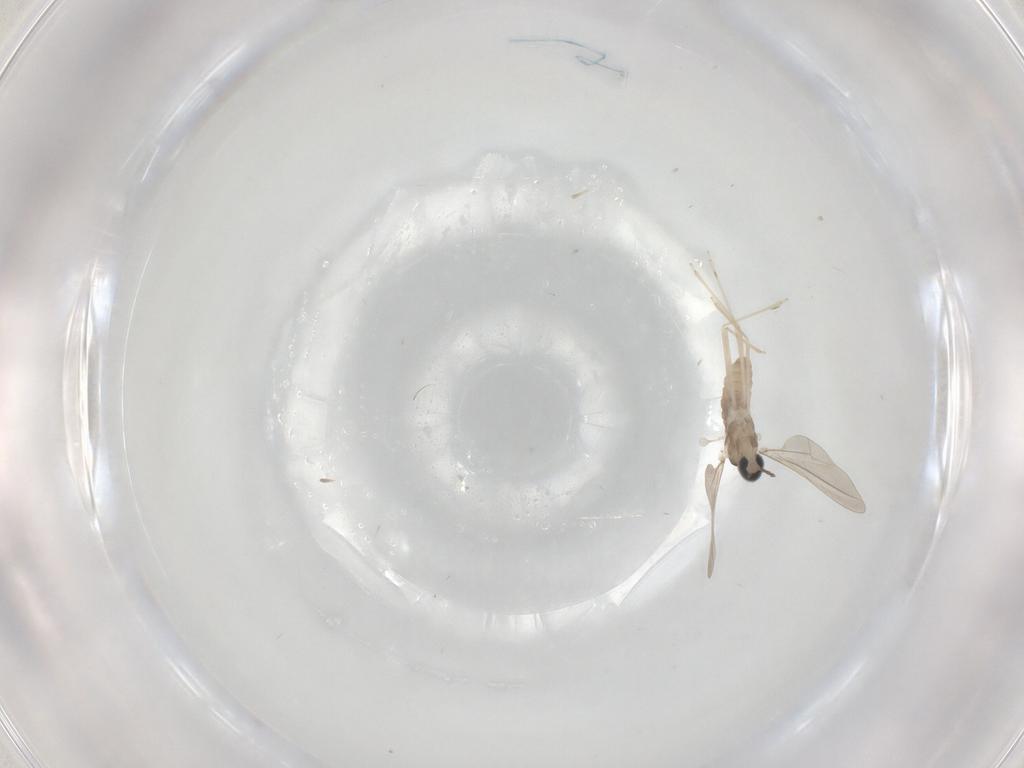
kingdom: Animalia
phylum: Arthropoda
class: Insecta
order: Diptera
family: Cecidomyiidae
